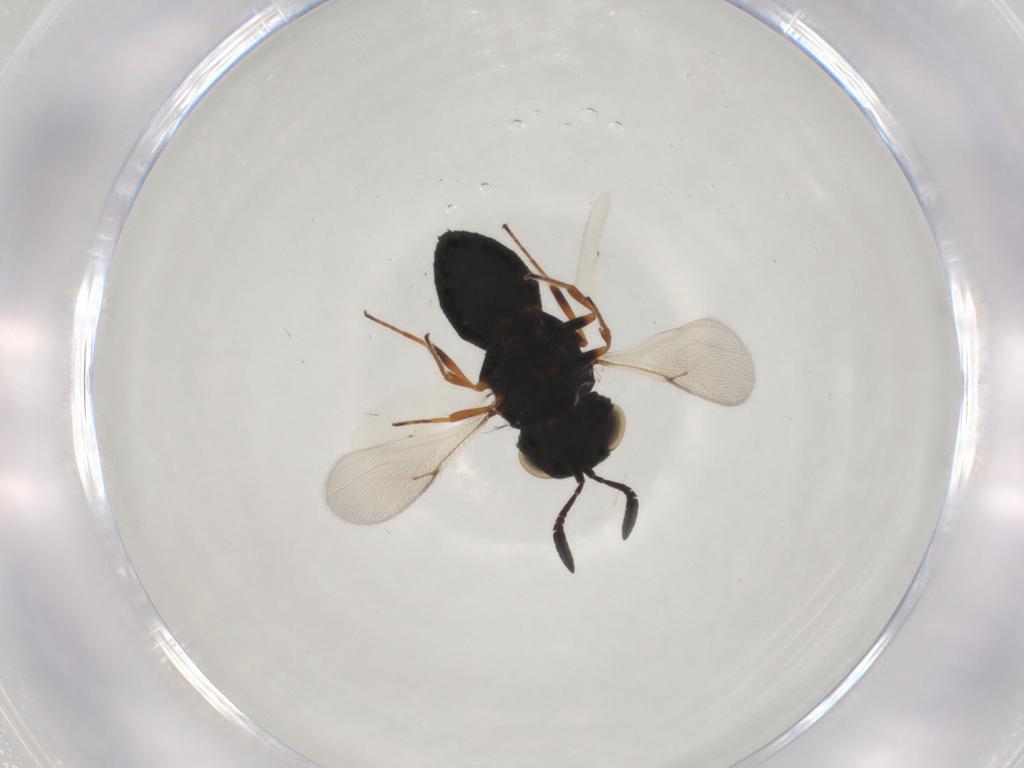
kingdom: Animalia
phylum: Arthropoda
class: Insecta
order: Hymenoptera
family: Scelionidae
